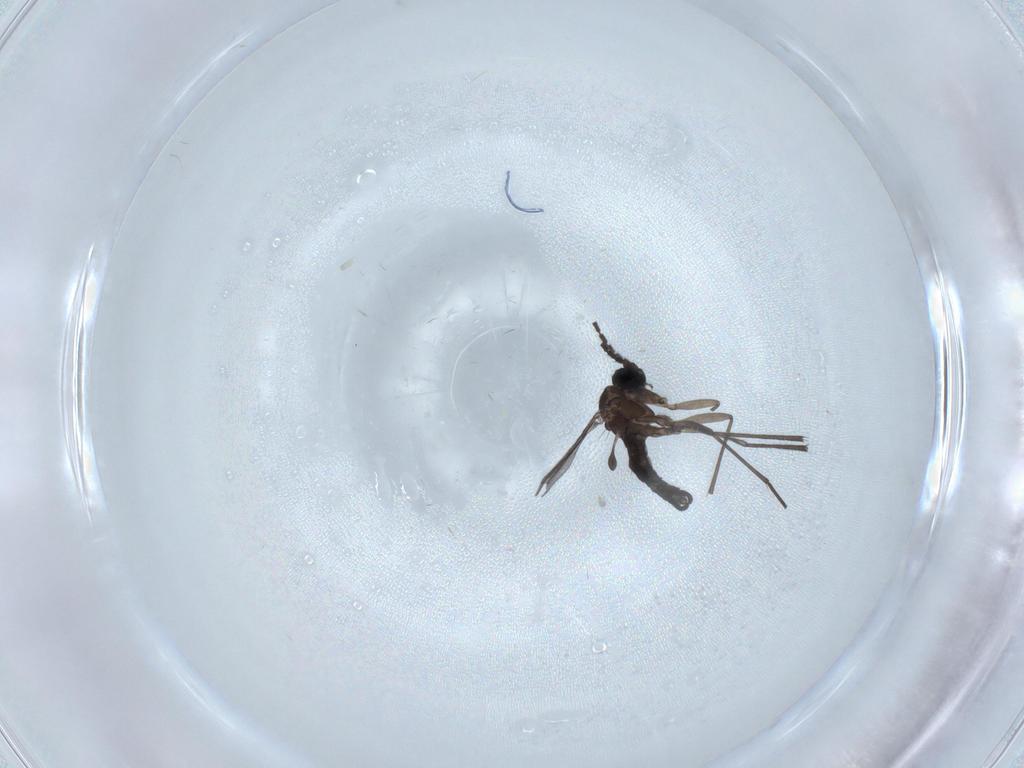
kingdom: Animalia
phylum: Arthropoda
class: Insecta
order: Diptera
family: Sciaridae
